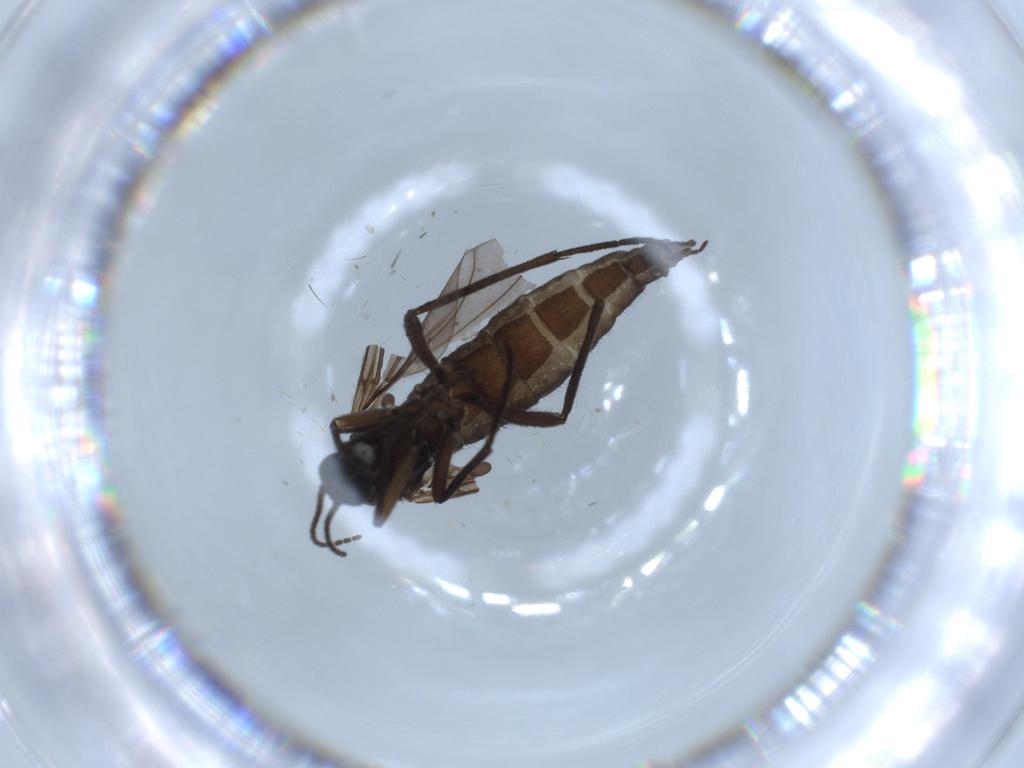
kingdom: Animalia
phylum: Arthropoda
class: Insecta
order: Diptera
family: Sciaridae
